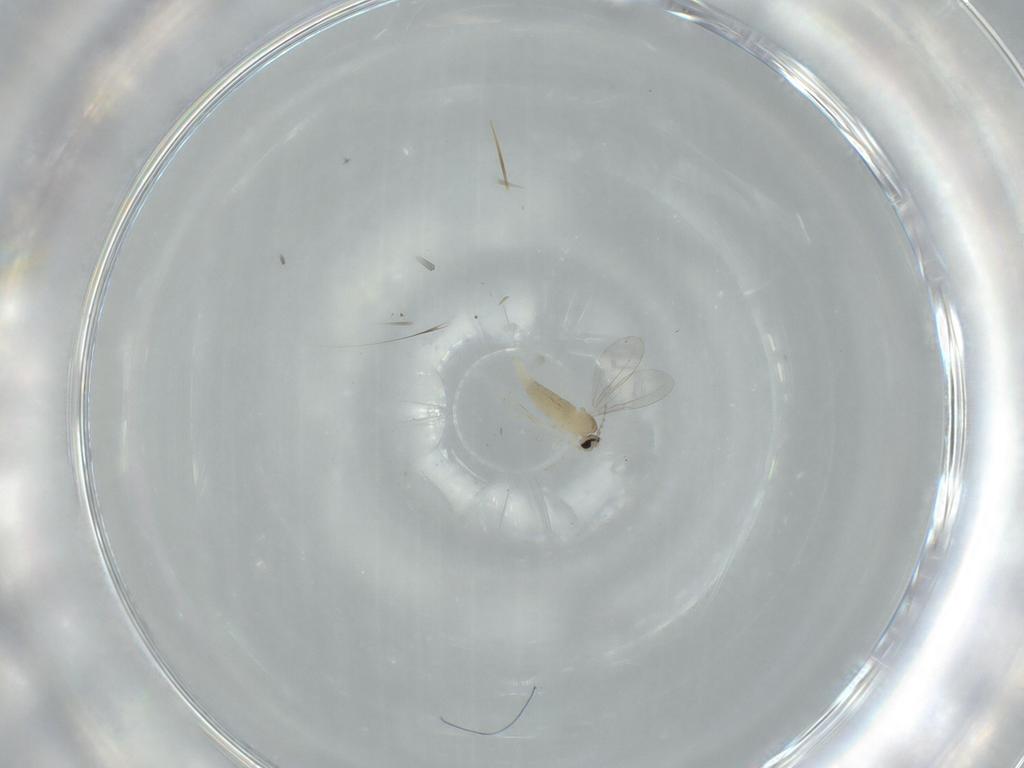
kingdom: Animalia
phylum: Arthropoda
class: Insecta
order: Diptera
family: Cecidomyiidae
